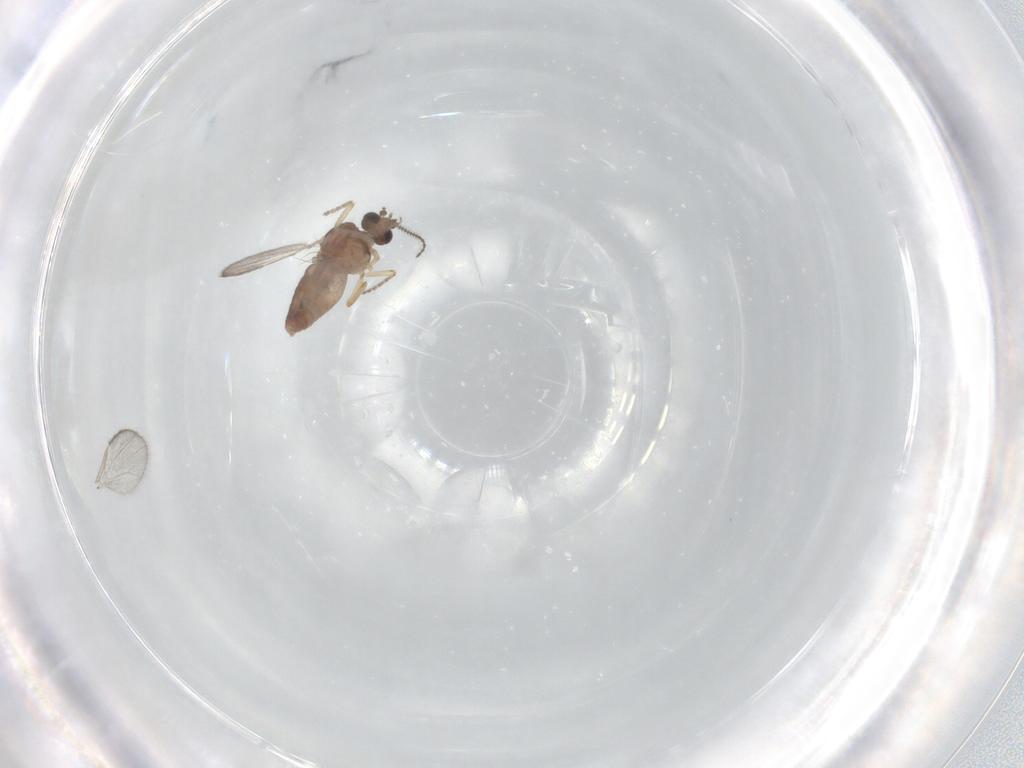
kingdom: Animalia
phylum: Arthropoda
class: Insecta
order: Diptera
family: Ceratopogonidae
